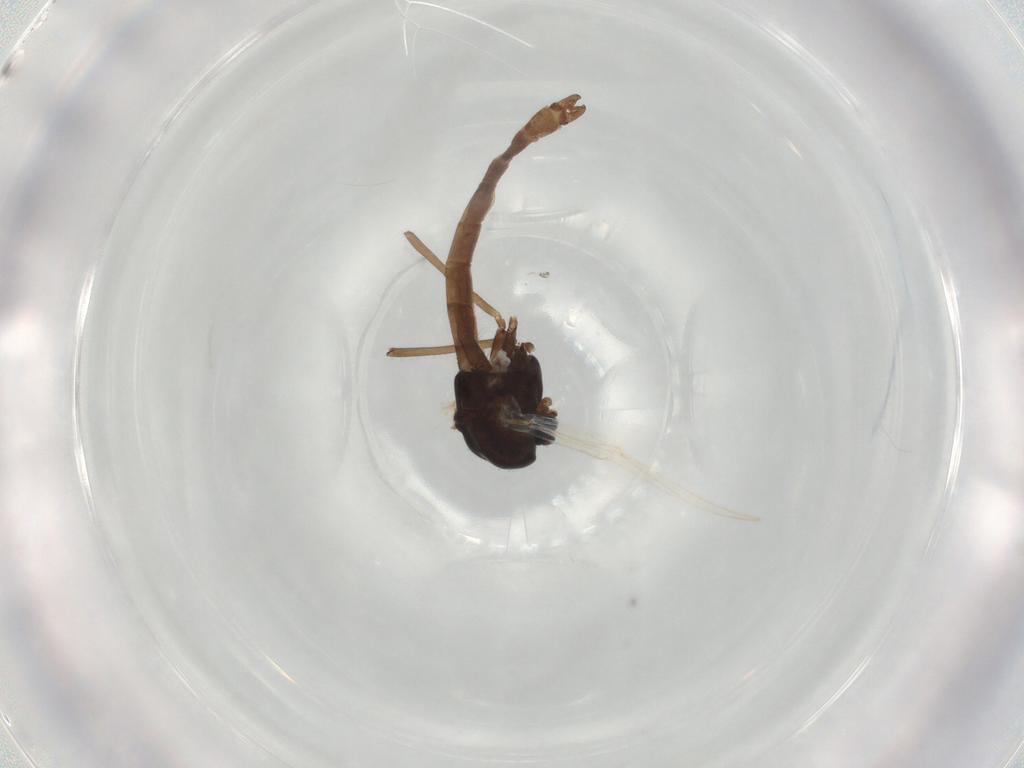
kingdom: Animalia
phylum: Arthropoda
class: Insecta
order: Diptera
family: Chironomidae
